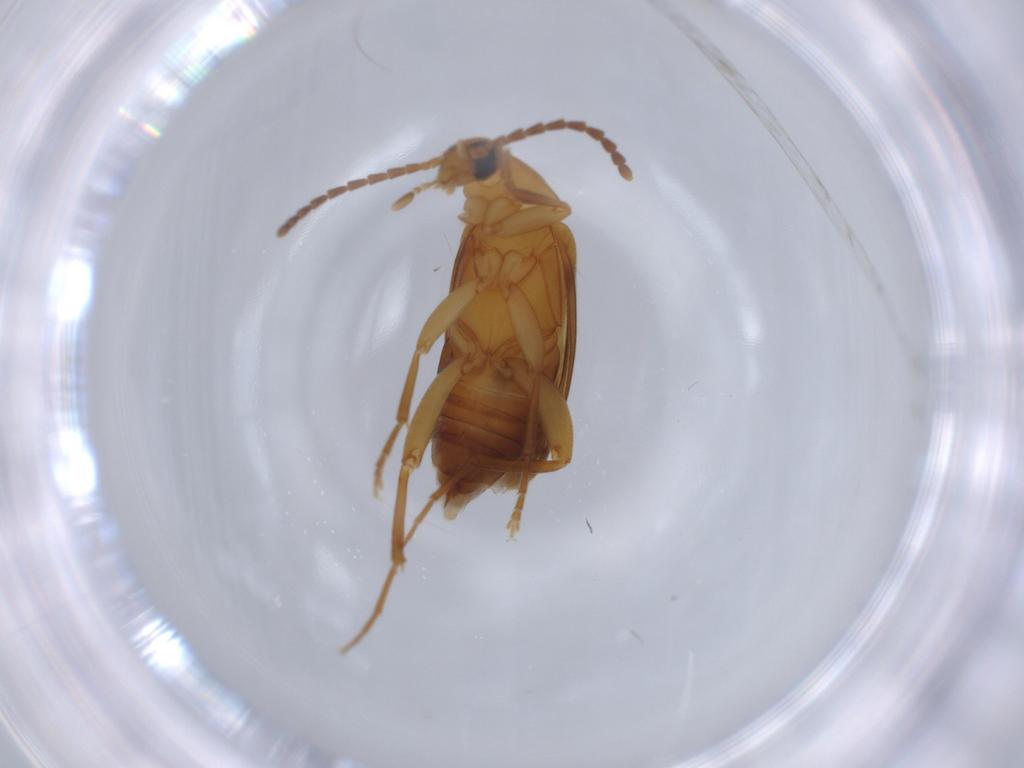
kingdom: Animalia
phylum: Arthropoda
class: Insecta
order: Coleoptera
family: Scraptiidae
